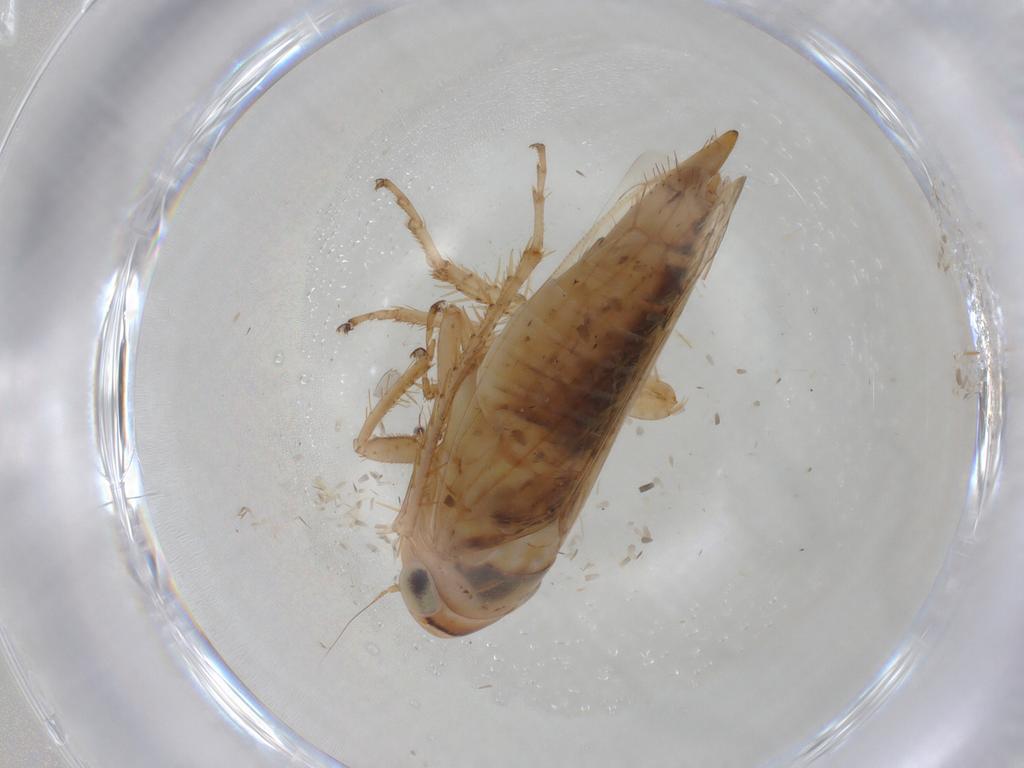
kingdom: Animalia
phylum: Arthropoda
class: Insecta
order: Hemiptera
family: Cicadellidae
